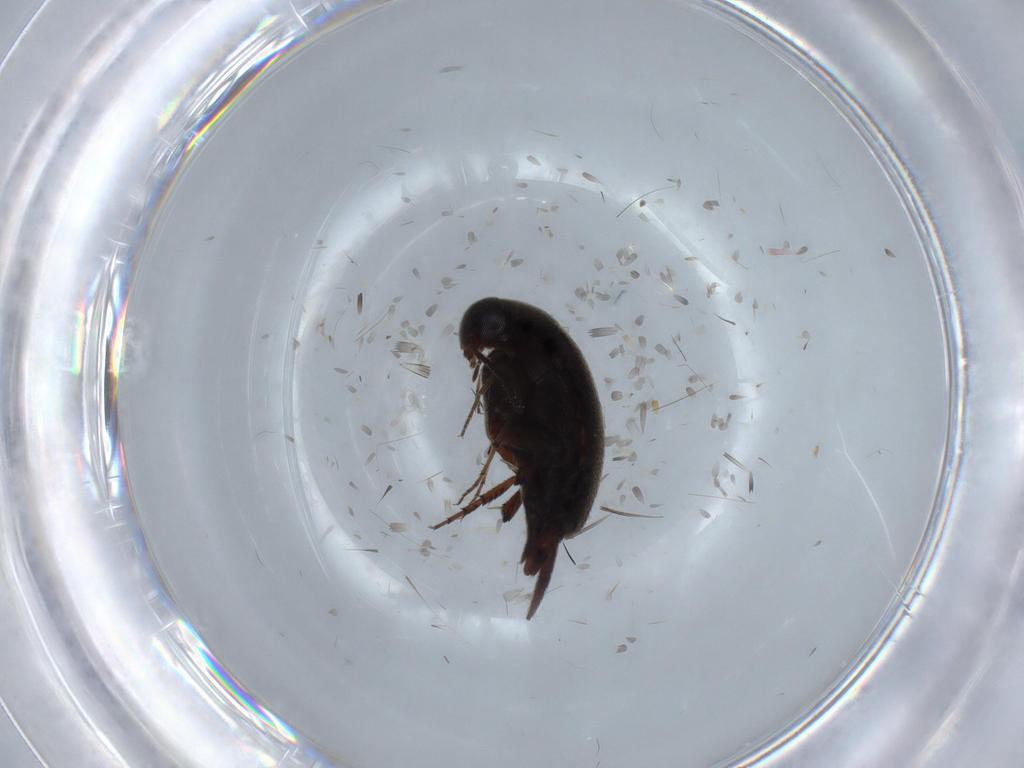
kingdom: Animalia
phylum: Arthropoda
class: Insecta
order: Coleoptera
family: Mordellidae
